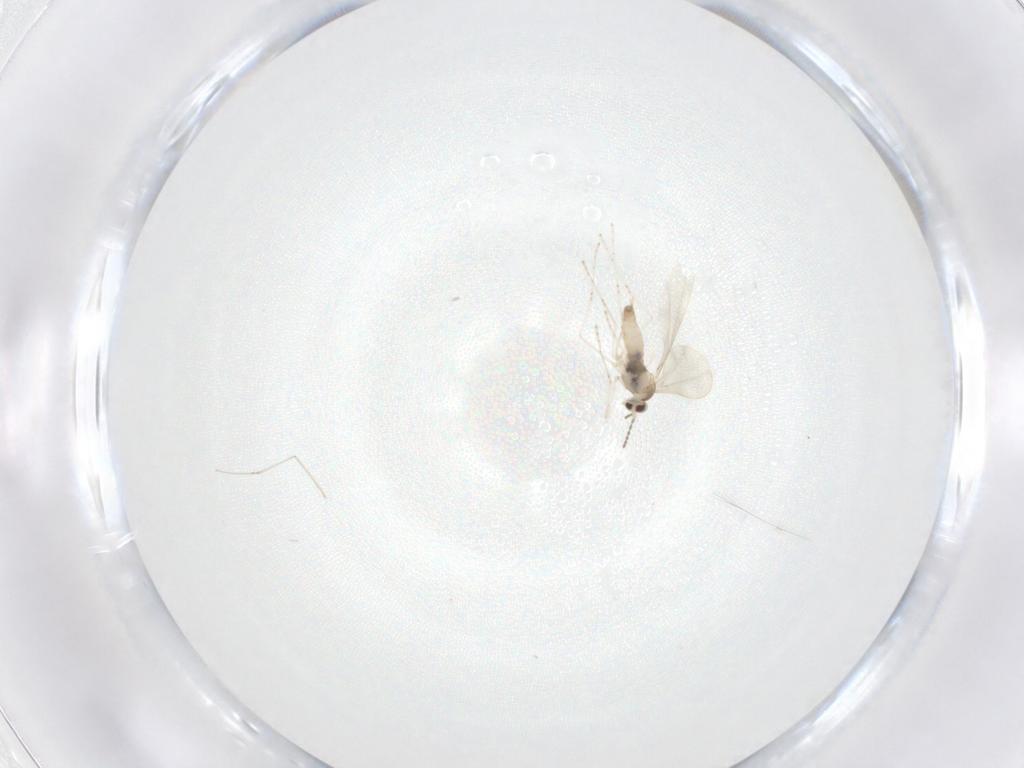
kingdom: Animalia
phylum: Arthropoda
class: Insecta
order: Diptera
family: Cecidomyiidae
